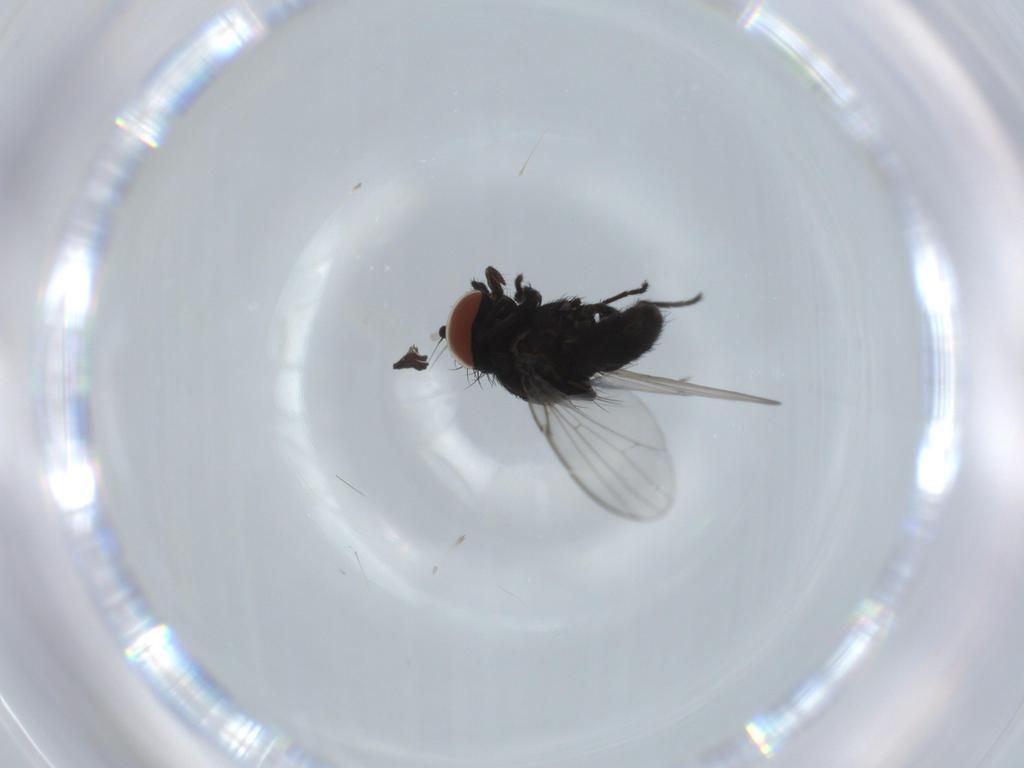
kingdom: Animalia
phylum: Arthropoda
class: Insecta
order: Diptera
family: Milichiidae
